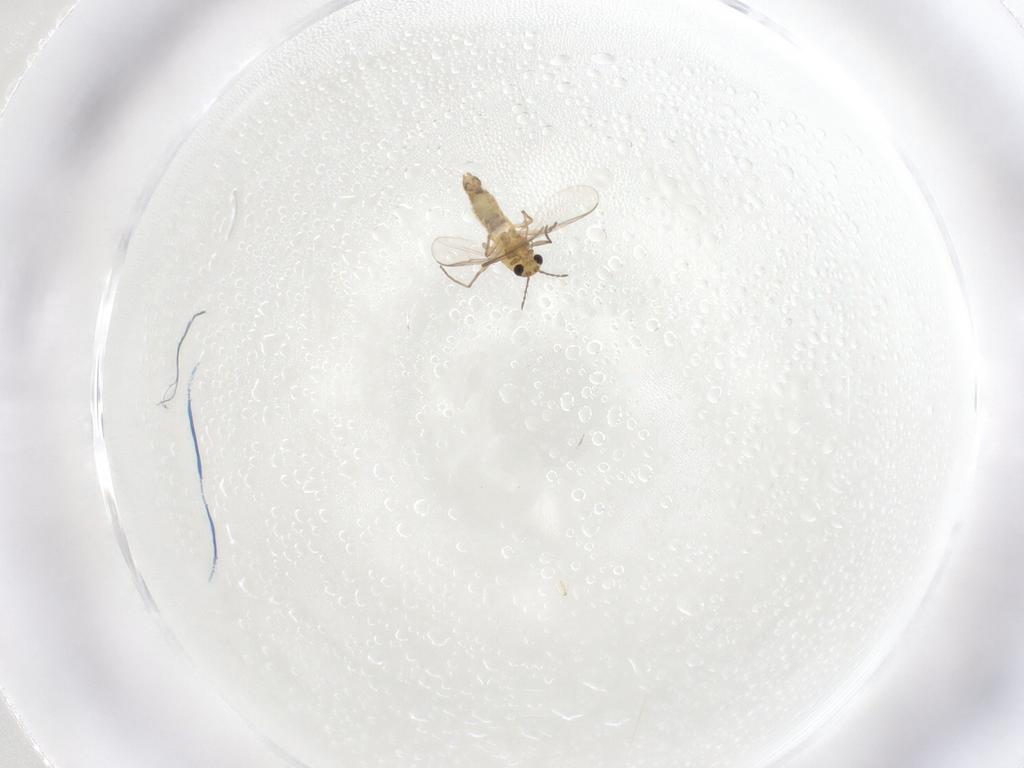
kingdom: Animalia
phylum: Arthropoda
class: Insecta
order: Diptera
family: Chironomidae
